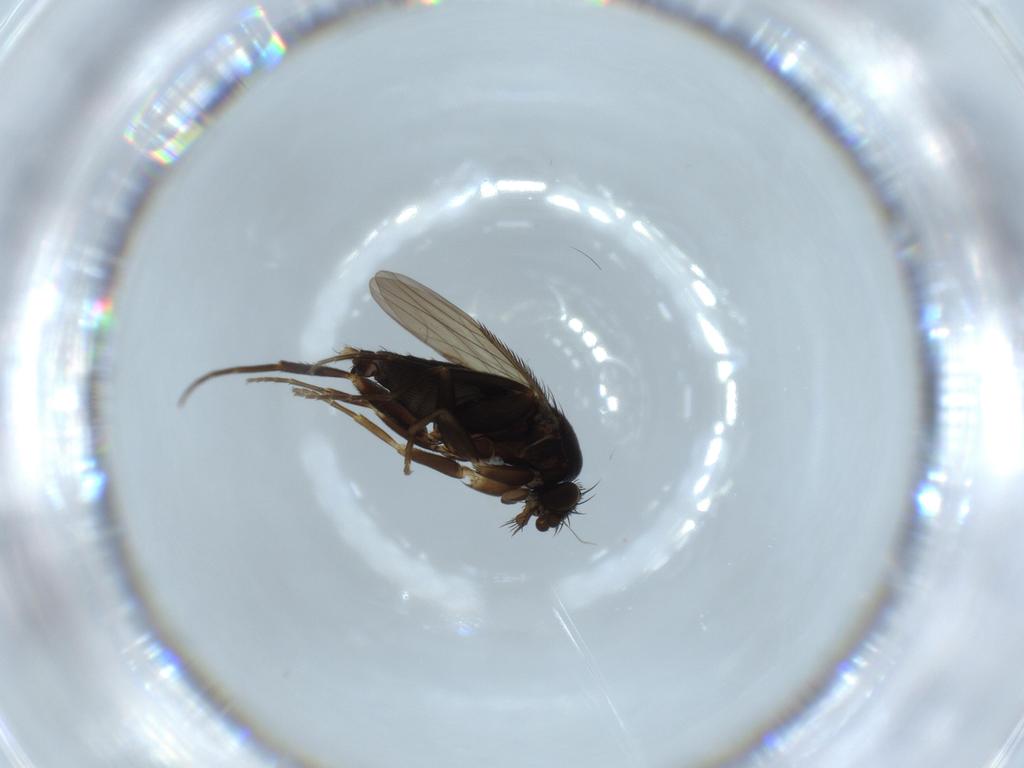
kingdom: Animalia
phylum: Arthropoda
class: Insecta
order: Diptera
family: Phoridae
